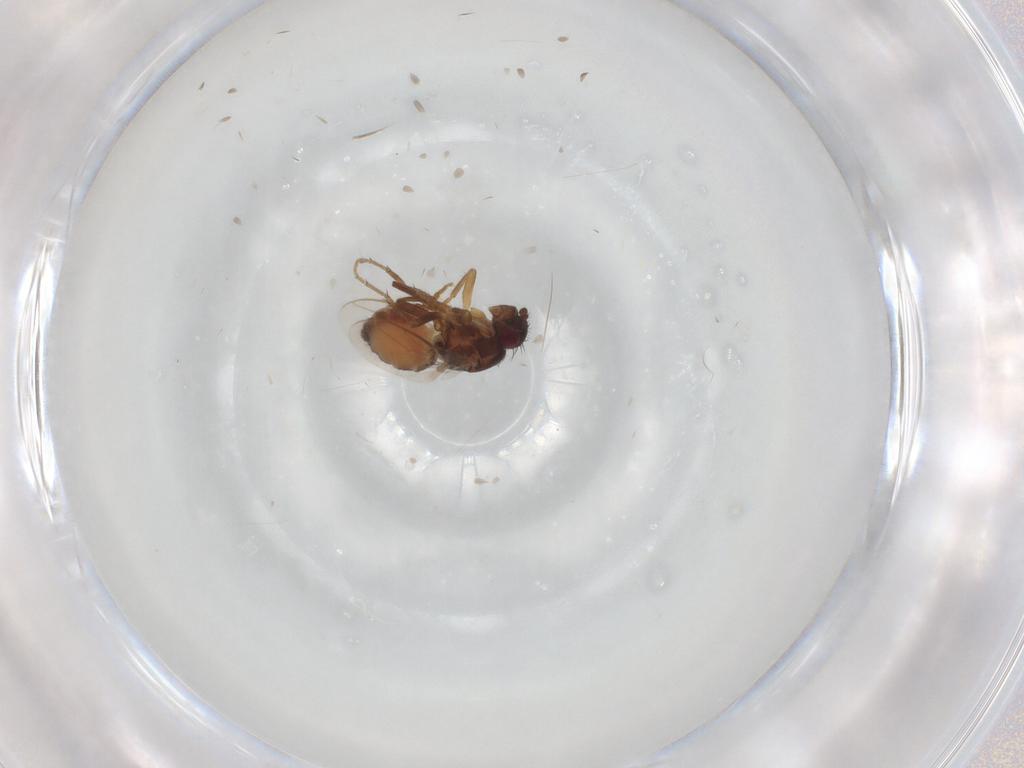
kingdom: Animalia
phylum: Arthropoda
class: Insecta
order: Diptera
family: Sphaeroceridae
